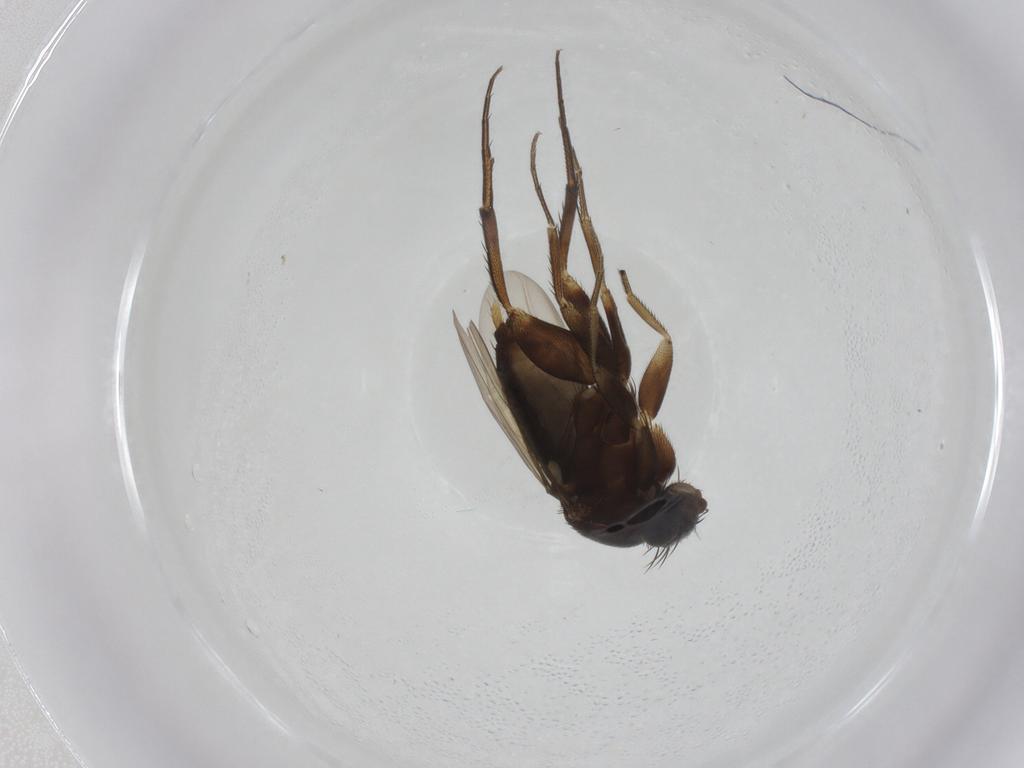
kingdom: Animalia
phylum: Arthropoda
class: Insecta
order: Diptera
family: Phoridae
